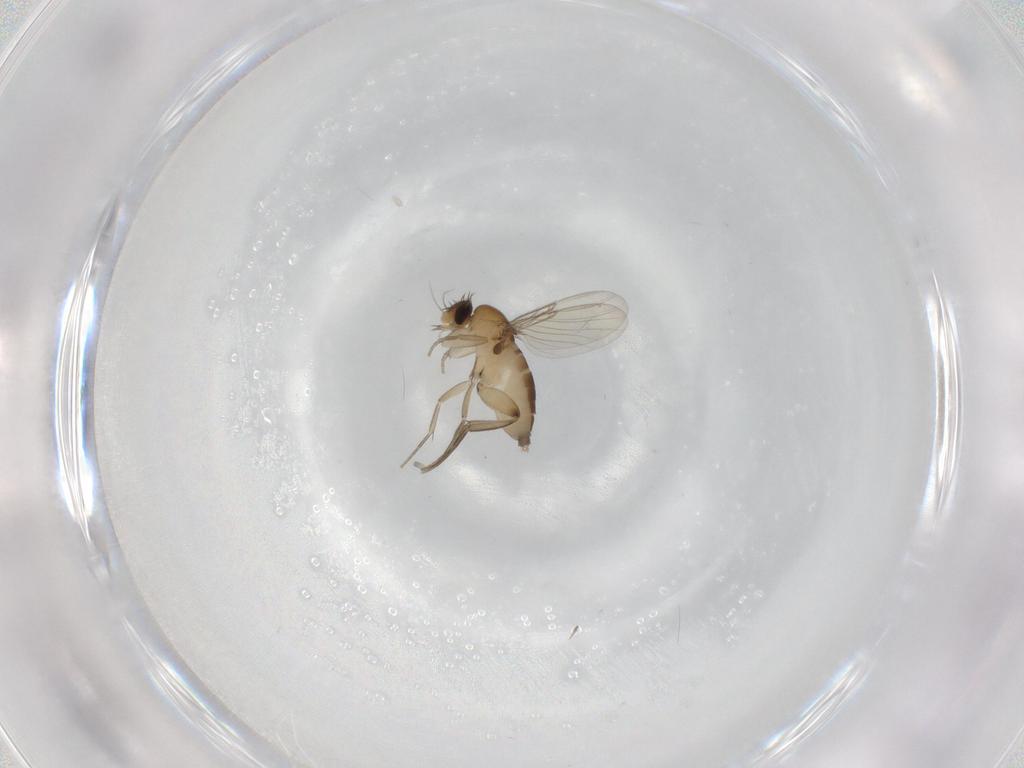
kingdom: Animalia
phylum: Arthropoda
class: Insecta
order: Diptera
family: Phoridae
